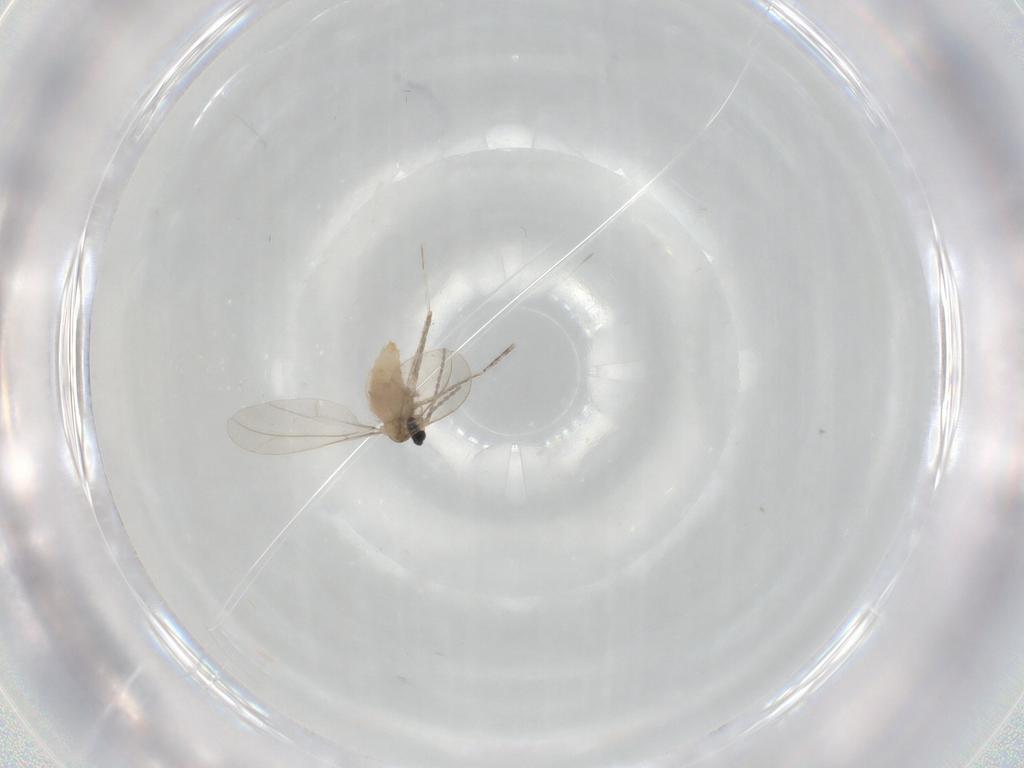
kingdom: Animalia
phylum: Arthropoda
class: Insecta
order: Diptera
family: Cecidomyiidae
